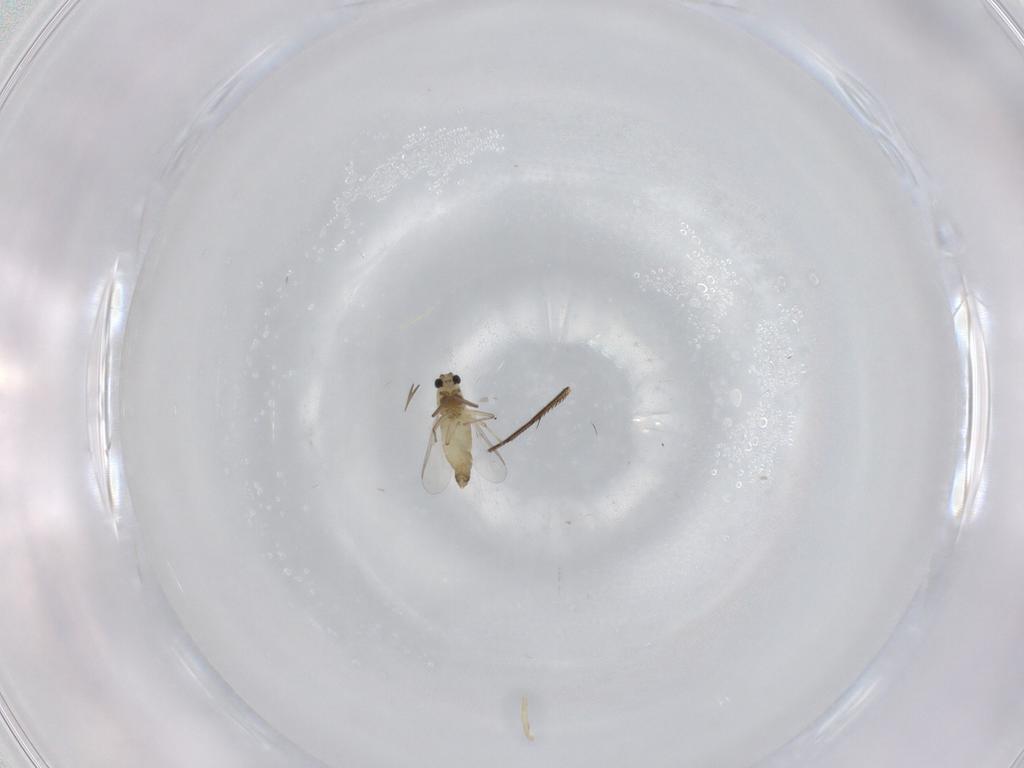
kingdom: Animalia
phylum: Arthropoda
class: Insecta
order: Diptera
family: Chironomidae
